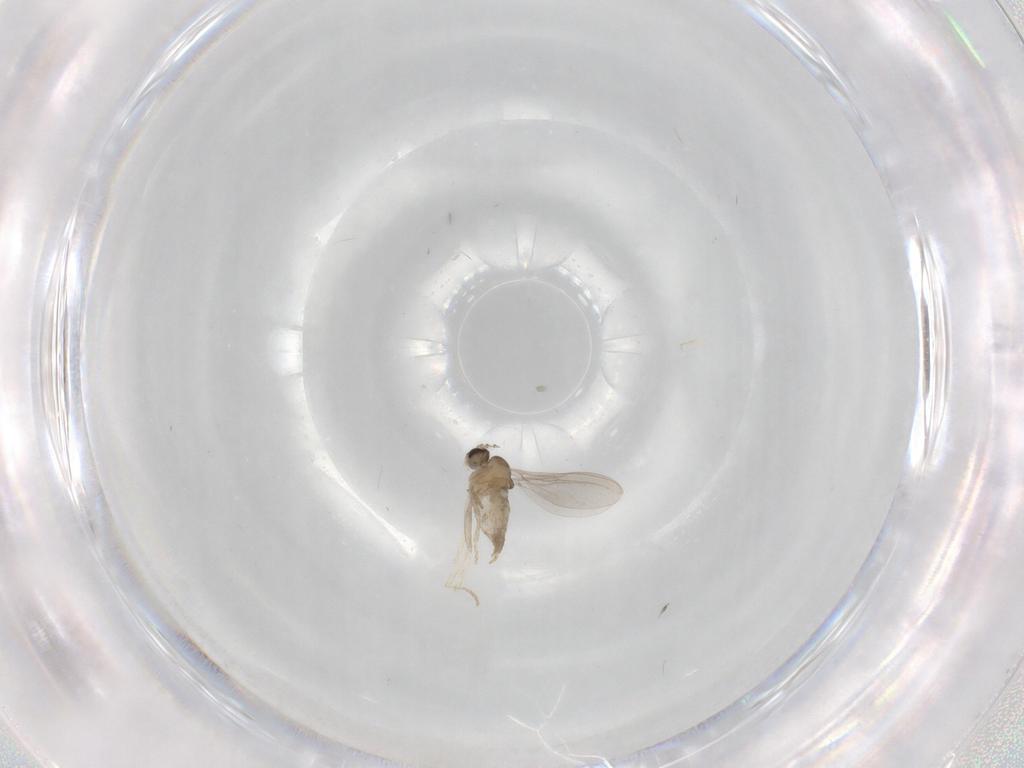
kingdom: Animalia
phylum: Arthropoda
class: Insecta
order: Diptera
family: Cecidomyiidae
